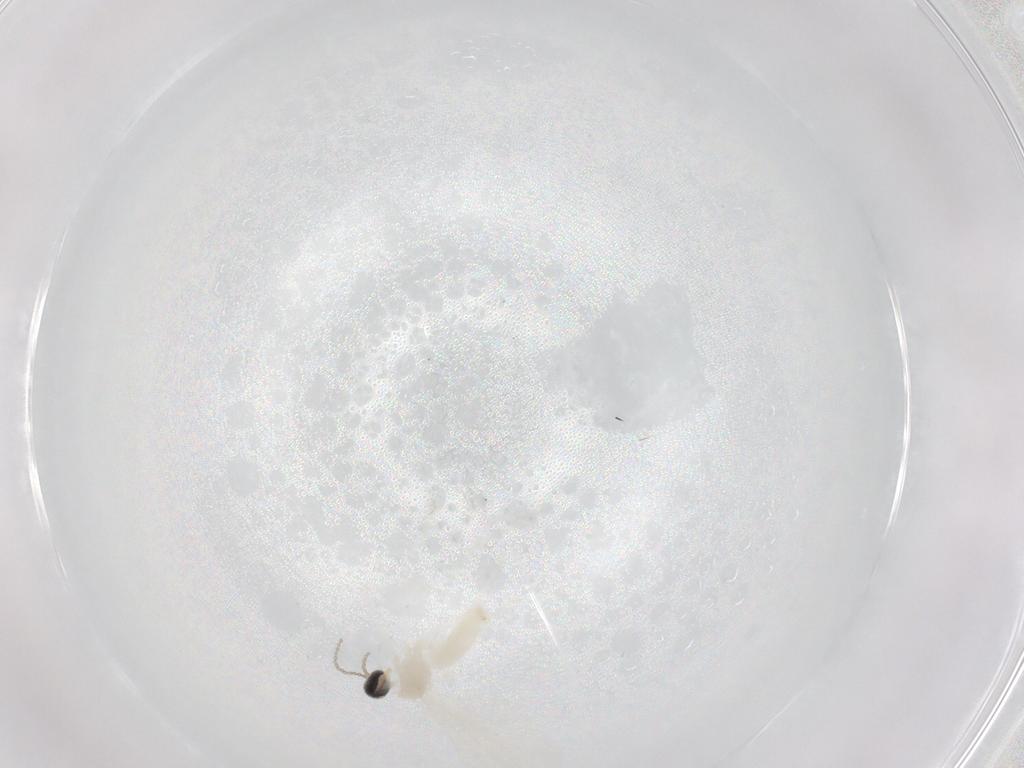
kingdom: Animalia
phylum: Arthropoda
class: Insecta
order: Diptera
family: Cecidomyiidae
